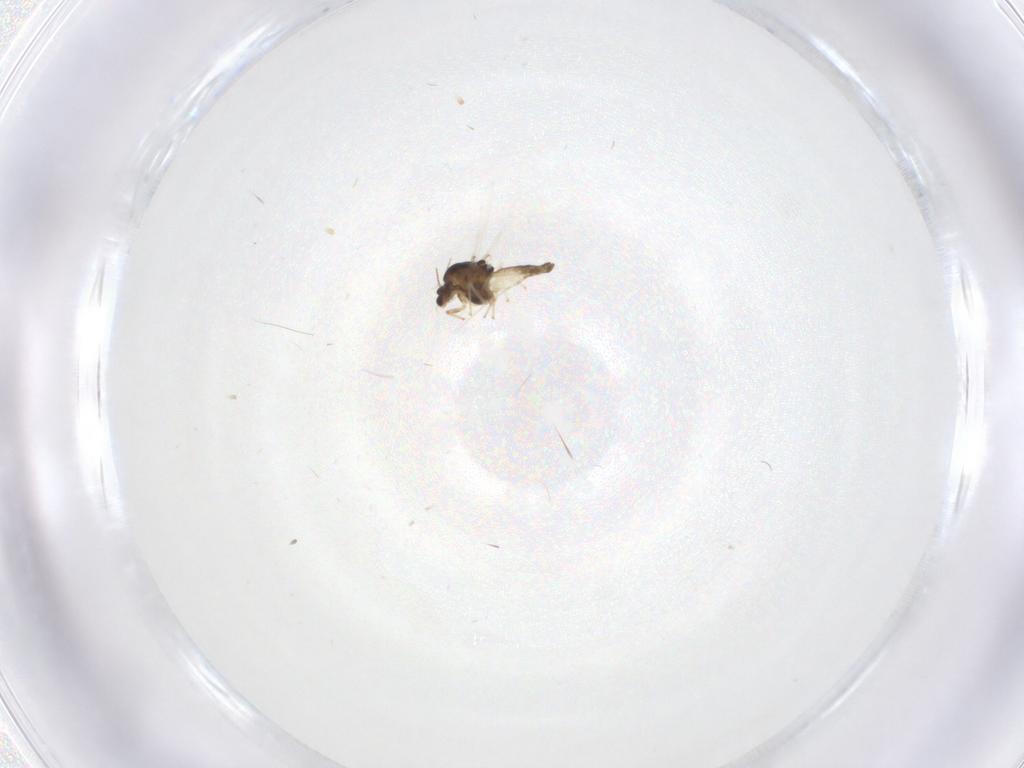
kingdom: Animalia
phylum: Arthropoda
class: Insecta
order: Diptera
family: Chironomidae
